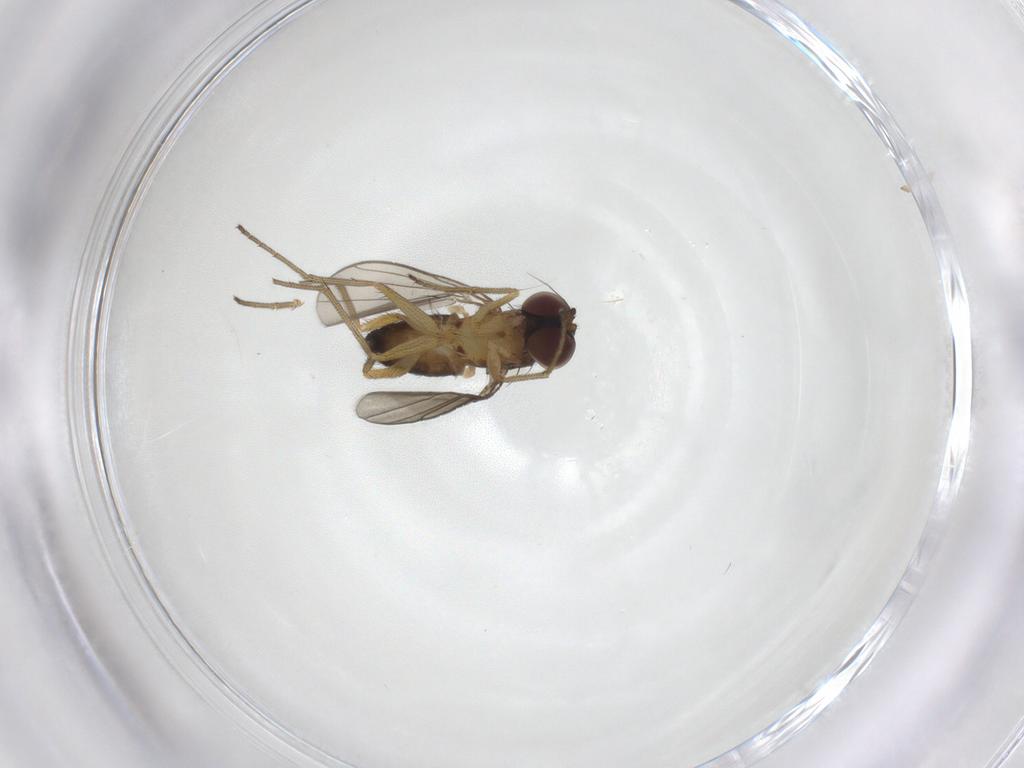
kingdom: Animalia
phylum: Arthropoda
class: Insecta
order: Diptera
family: Dolichopodidae
